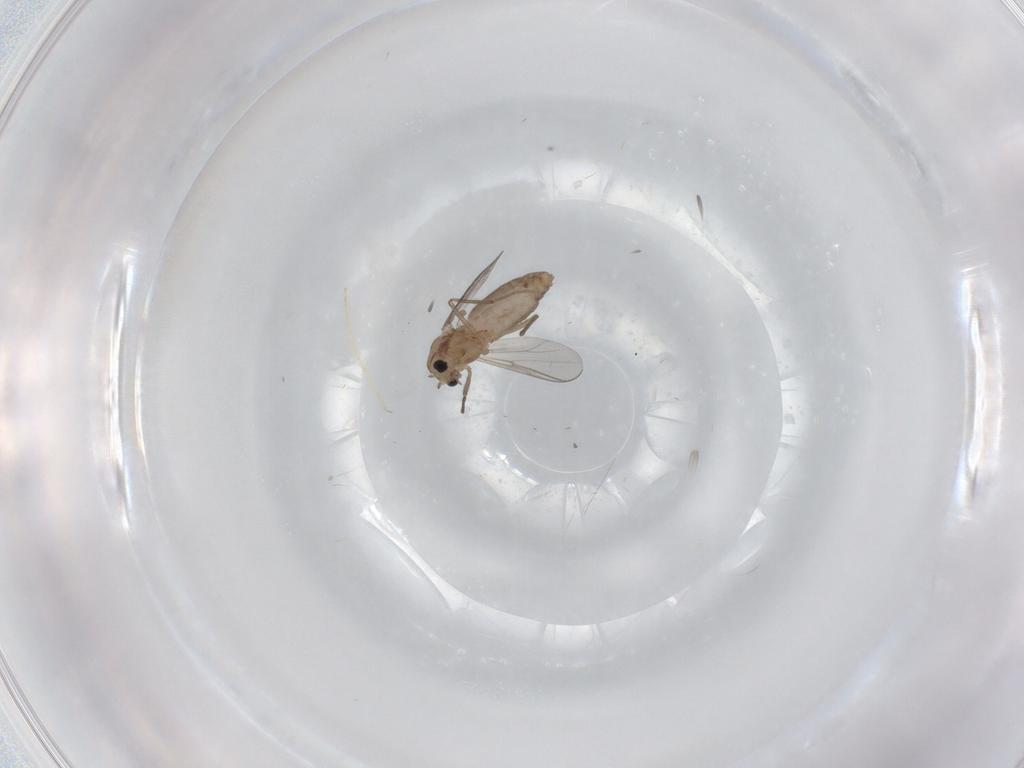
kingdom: Animalia
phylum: Arthropoda
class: Insecta
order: Diptera
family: Chironomidae
